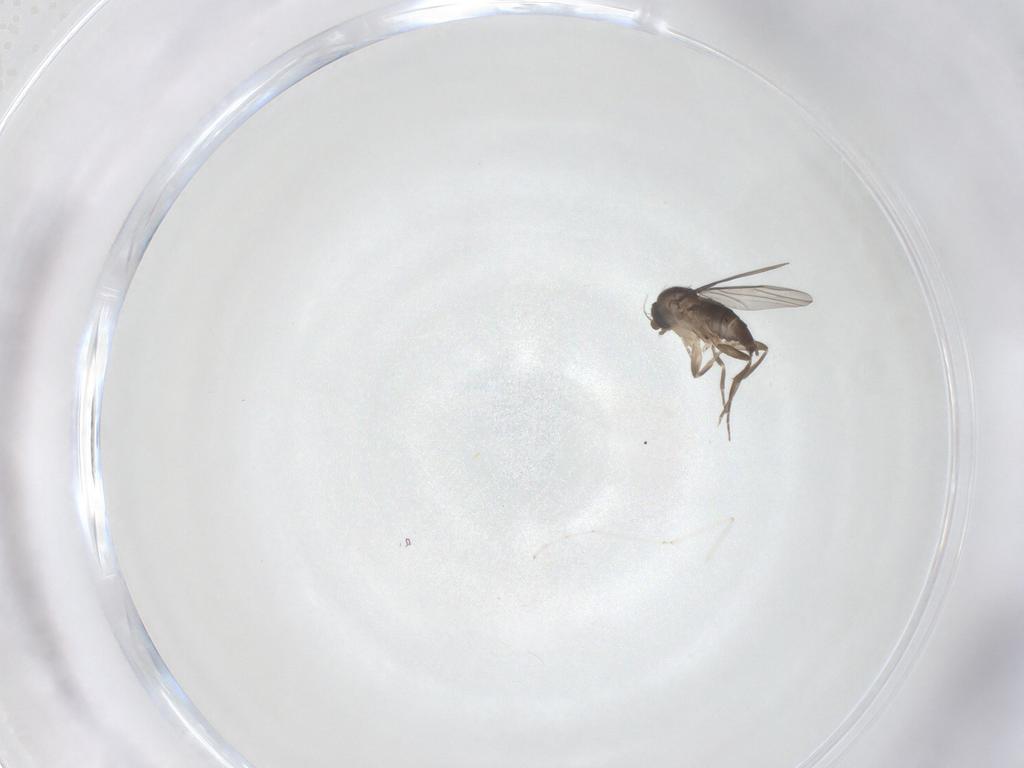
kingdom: Animalia
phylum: Arthropoda
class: Insecta
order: Diptera
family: Phoridae
